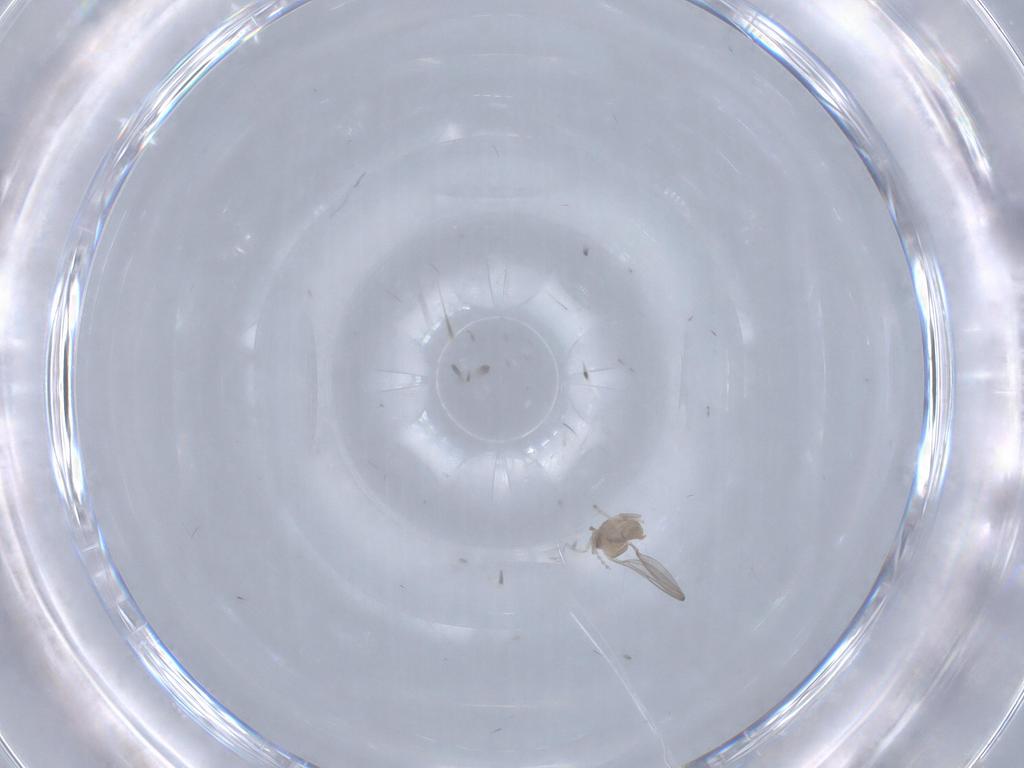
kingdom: Animalia
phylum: Arthropoda
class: Insecta
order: Diptera
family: Cecidomyiidae
